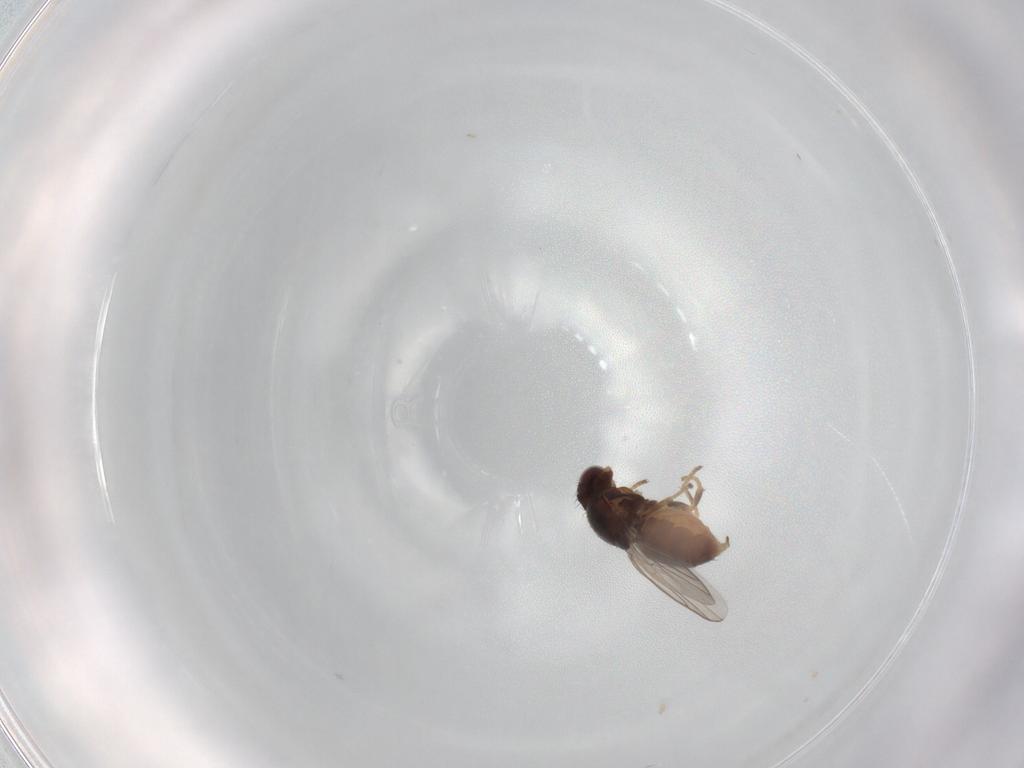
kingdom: Animalia
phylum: Arthropoda
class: Insecta
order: Diptera
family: Chloropidae
